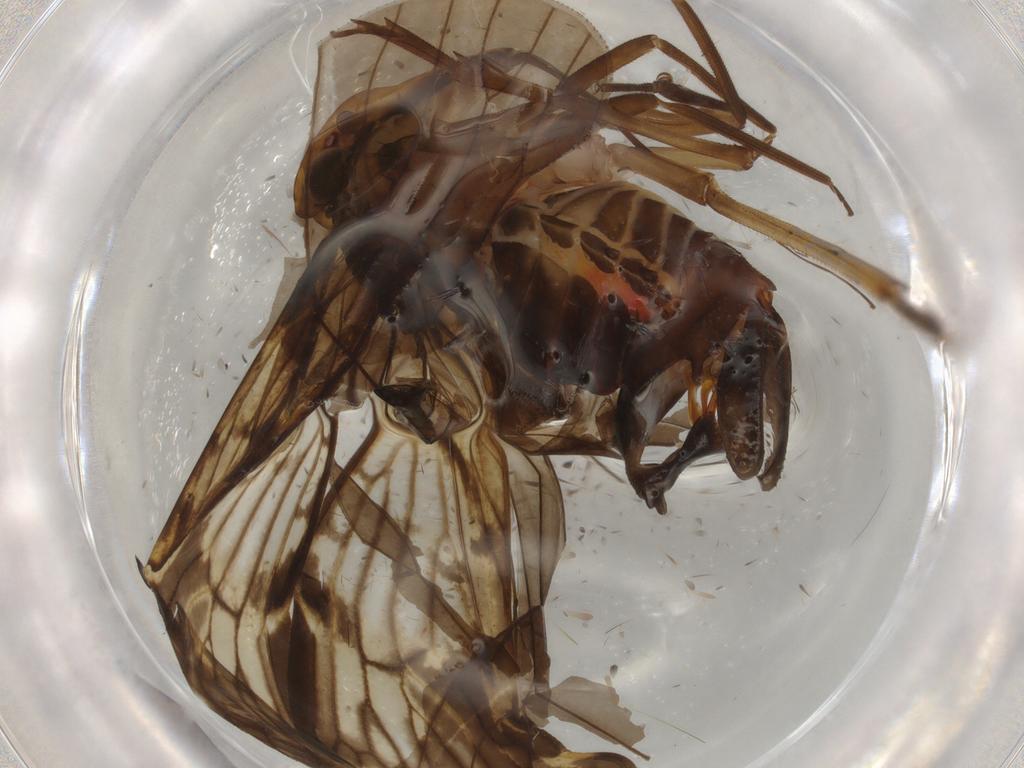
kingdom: Animalia
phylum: Arthropoda
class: Insecta
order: Hemiptera
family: Cixiidae
